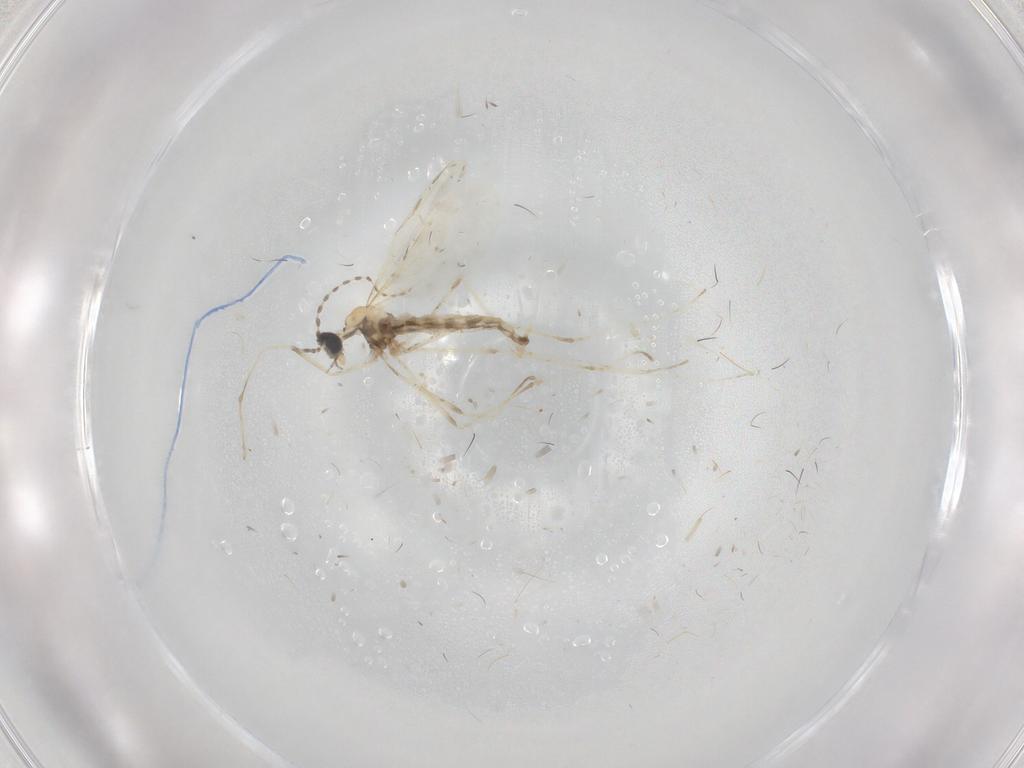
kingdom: Animalia
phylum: Arthropoda
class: Insecta
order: Diptera
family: Cecidomyiidae
